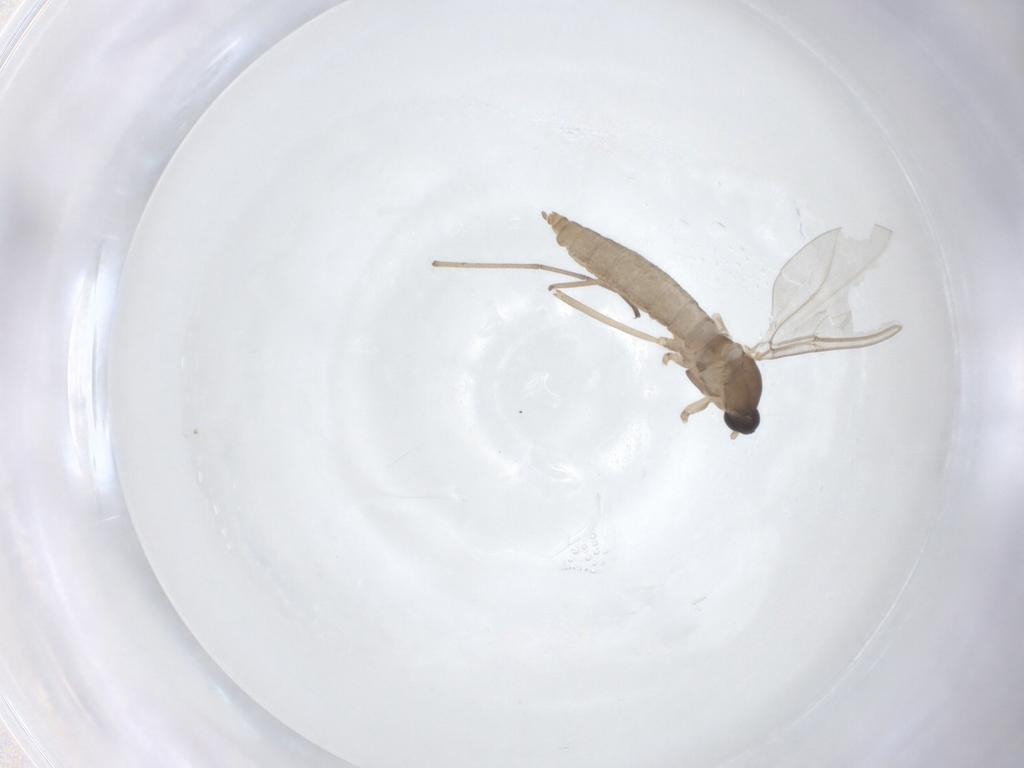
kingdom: Animalia
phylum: Arthropoda
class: Insecta
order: Diptera
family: Cecidomyiidae
